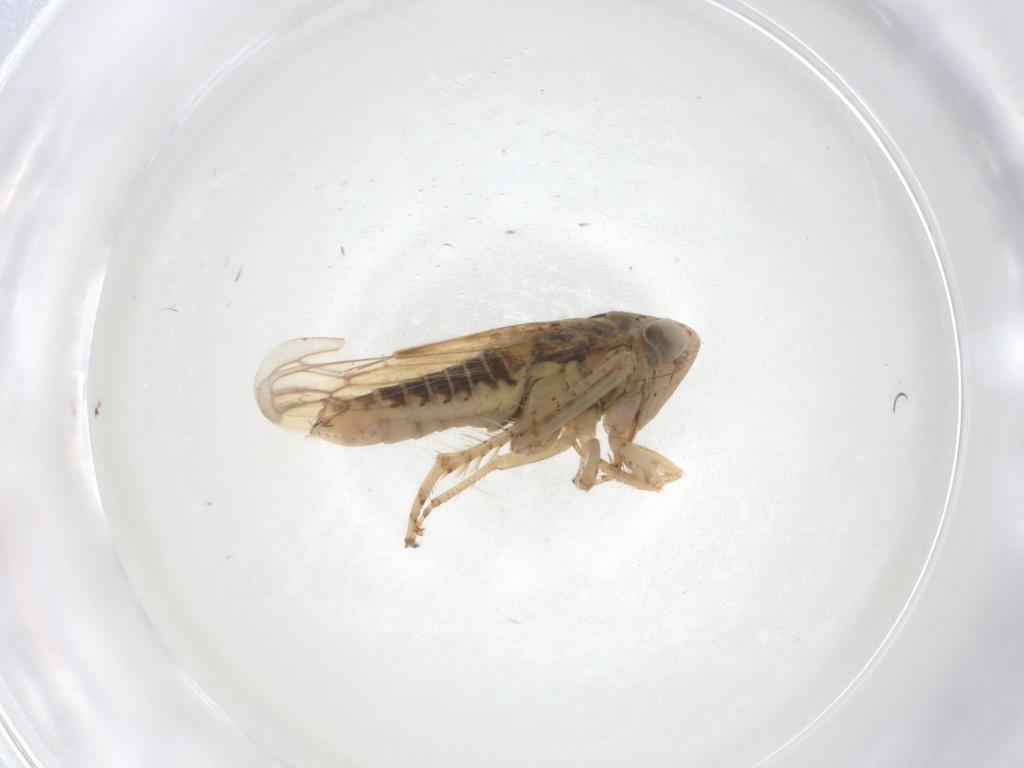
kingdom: Animalia
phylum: Arthropoda
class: Insecta
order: Hemiptera
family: Cicadellidae
